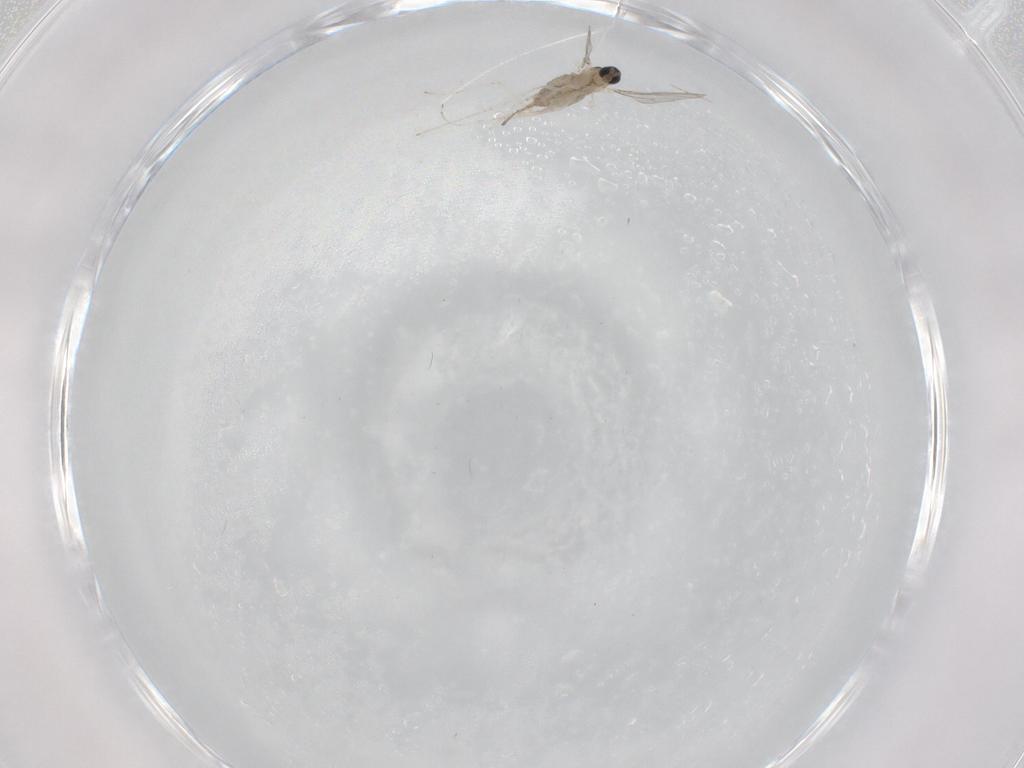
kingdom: Animalia
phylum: Arthropoda
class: Insecta
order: Diptera
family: Cecidomyiidae
